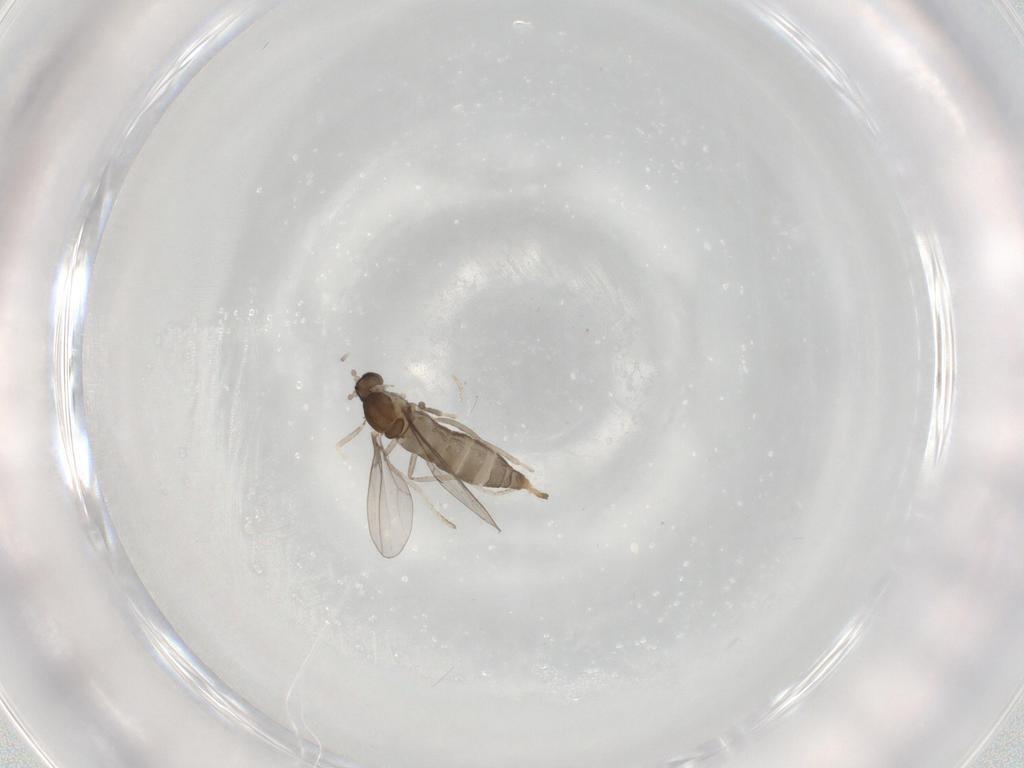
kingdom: Animalia
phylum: Arthropoda
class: Insecta
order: Diptera
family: Cecidomyiidae
